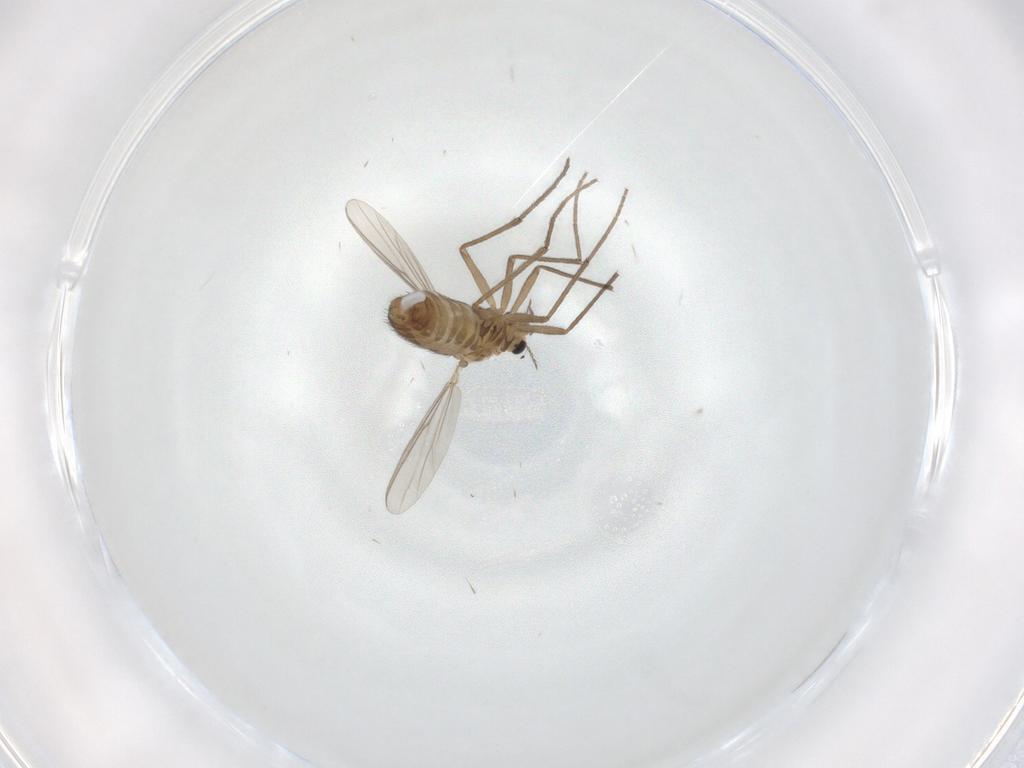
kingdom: Animalia
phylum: Arthropoda
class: Insecta
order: Diptera
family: Chironomidae
